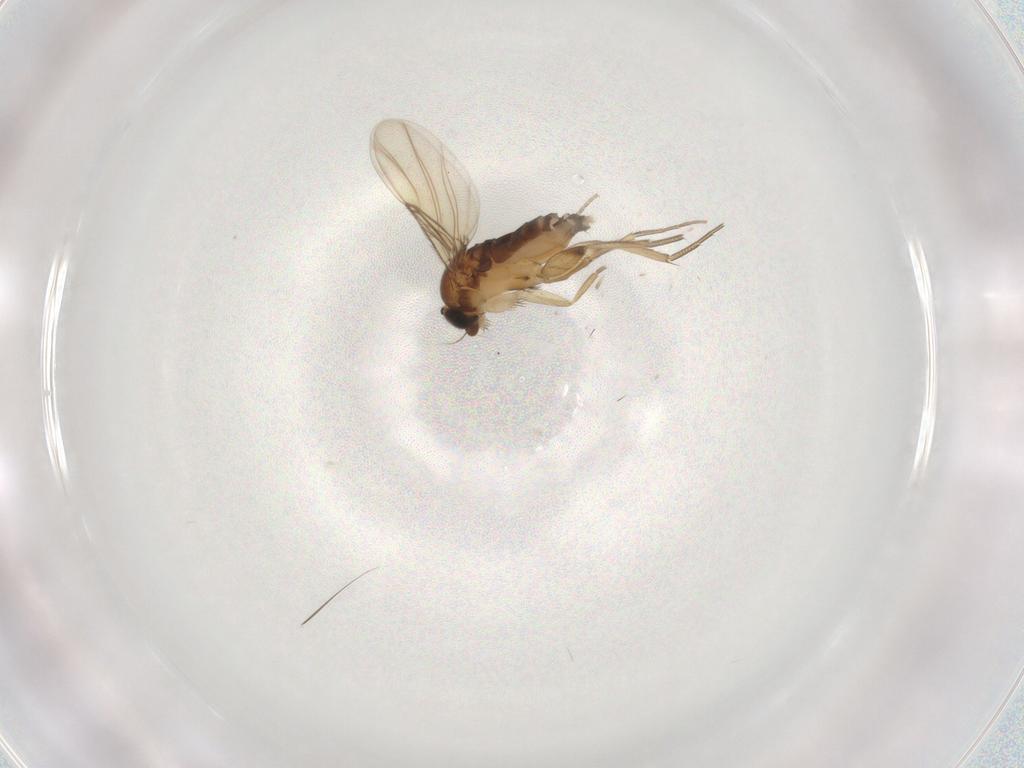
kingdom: Animalia
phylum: Arthropoda
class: Insecta
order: Diptera
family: Phoridae
